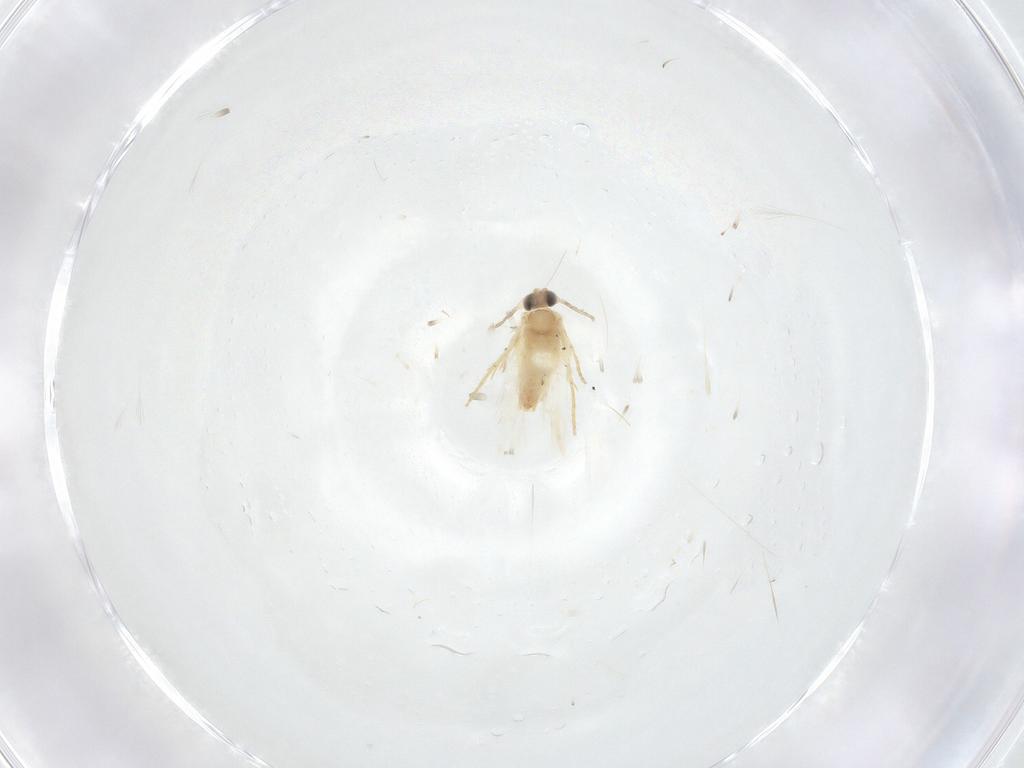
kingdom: Animalia
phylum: Arthropoda
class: Insecta
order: Lepidoptera
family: Crambidae
